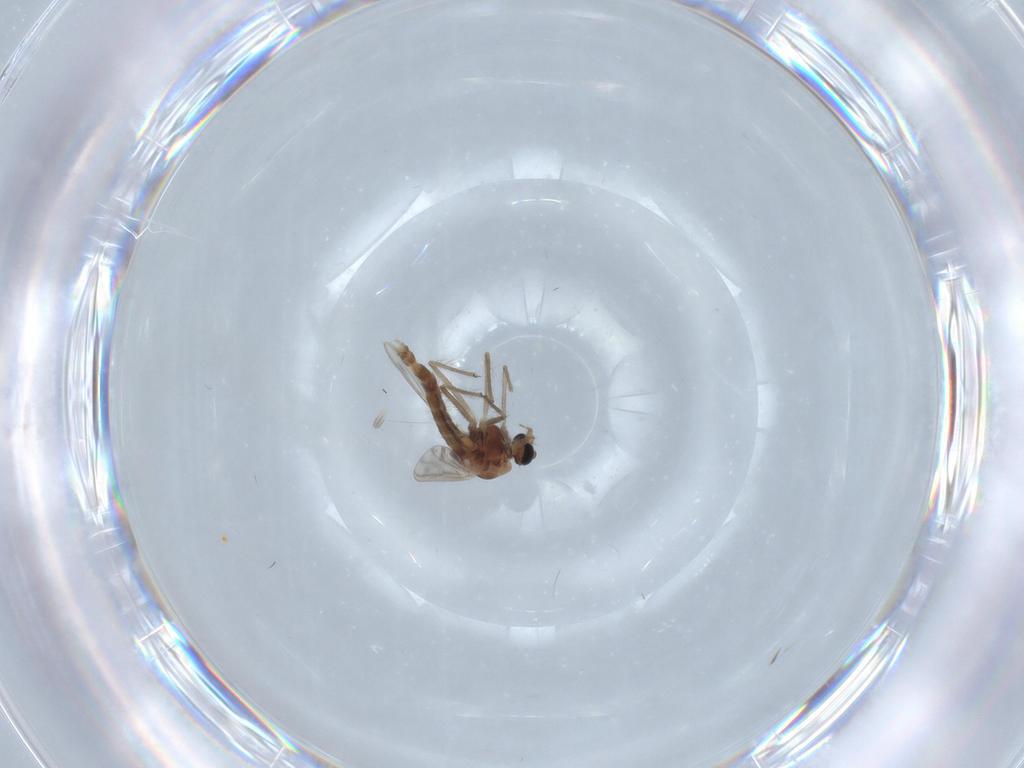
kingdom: Animalia
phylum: Arthropoda
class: Insecta
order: Diptera
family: Chironomidae
